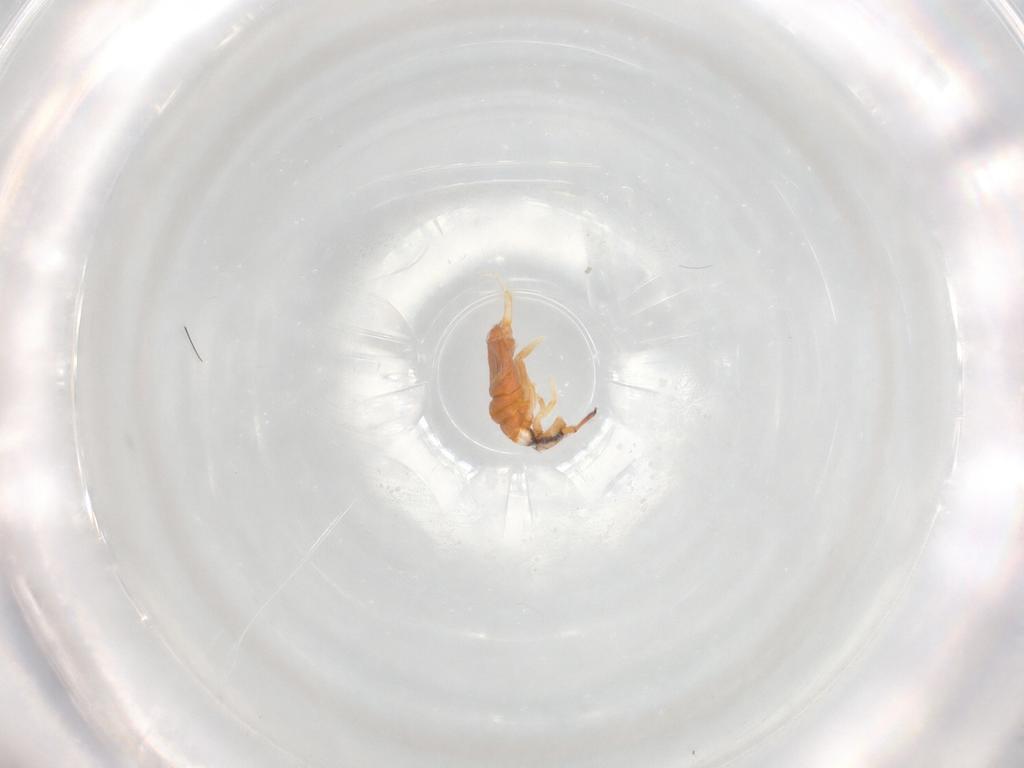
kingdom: Animalia
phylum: Arthropoda
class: Collembola
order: Entomobryomorpha
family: Entomobryidae
